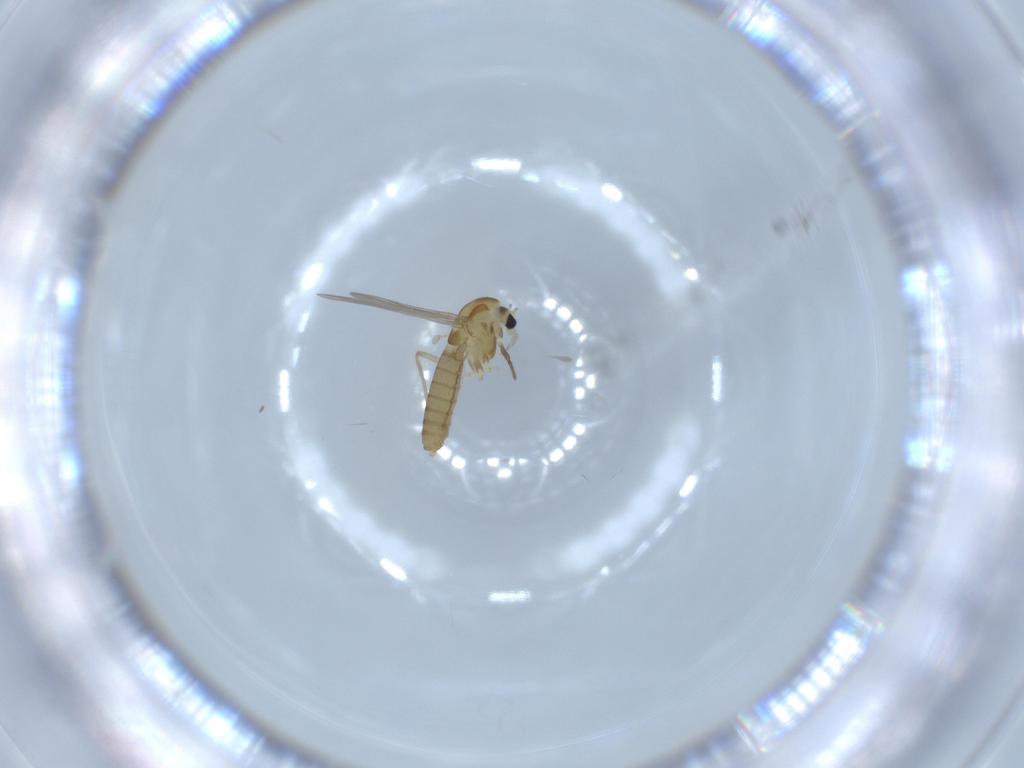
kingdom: Animalia
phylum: Arthropoda
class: Insecta
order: Diptera
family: Chironomidae
